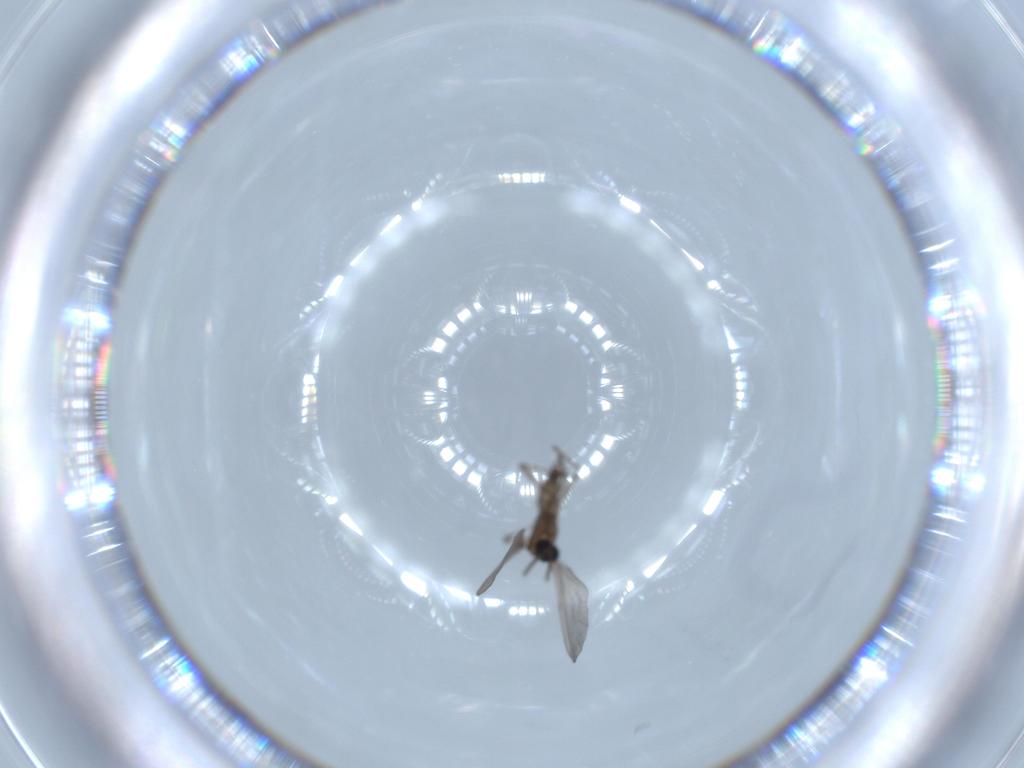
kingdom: Animalia
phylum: Arthropoda
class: Insecta
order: Diptera
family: Sciaridae
